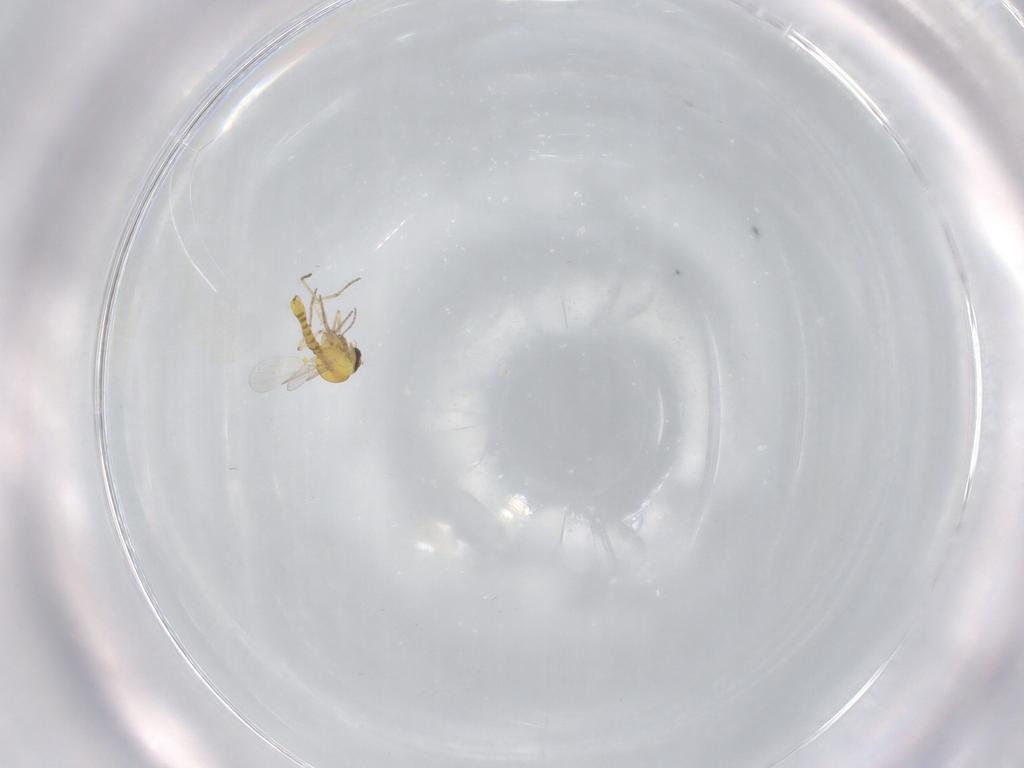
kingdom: Animalia
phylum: Arthropoda
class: Insecta
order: Diptera
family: Ceratopogonidae
